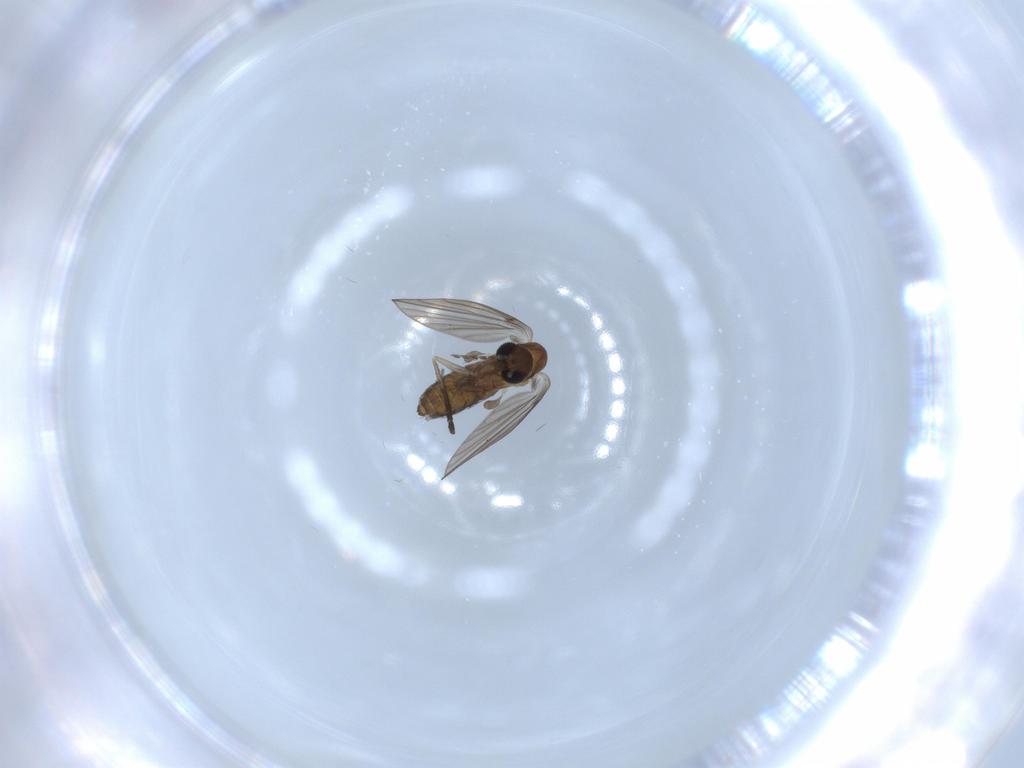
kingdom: Animalia
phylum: Arthropoda
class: Insecta
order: Diptera
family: Psychodidae
